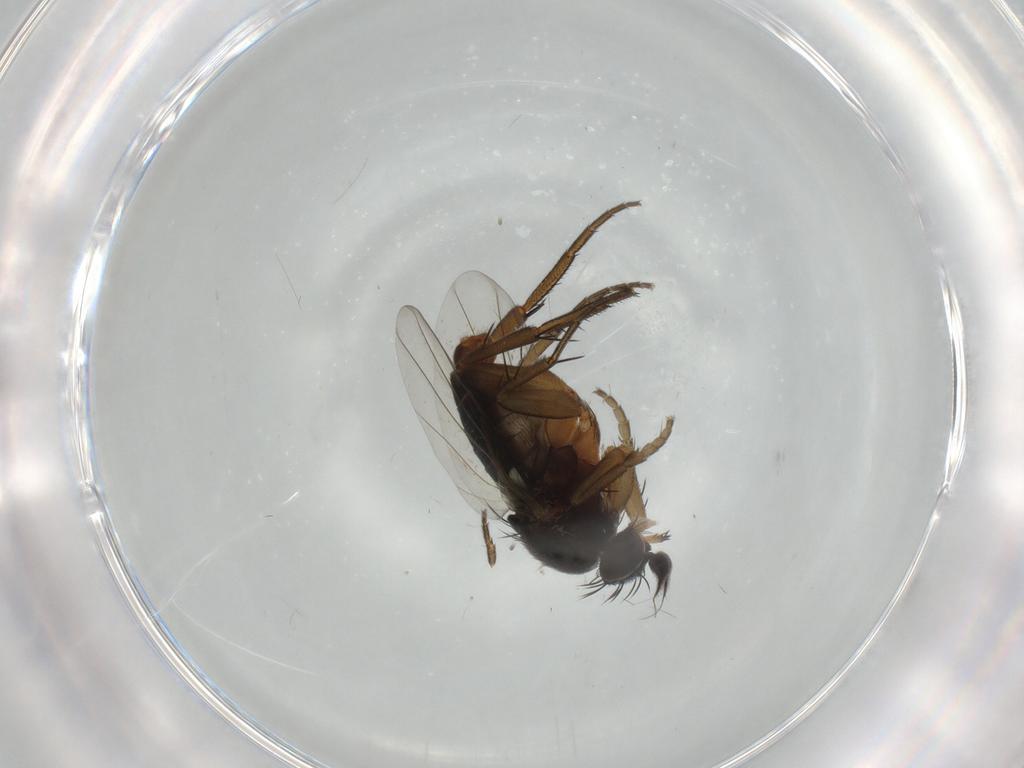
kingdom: Animalia
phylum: Arthropoda
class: Insecta
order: Diptera
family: Phoridae
